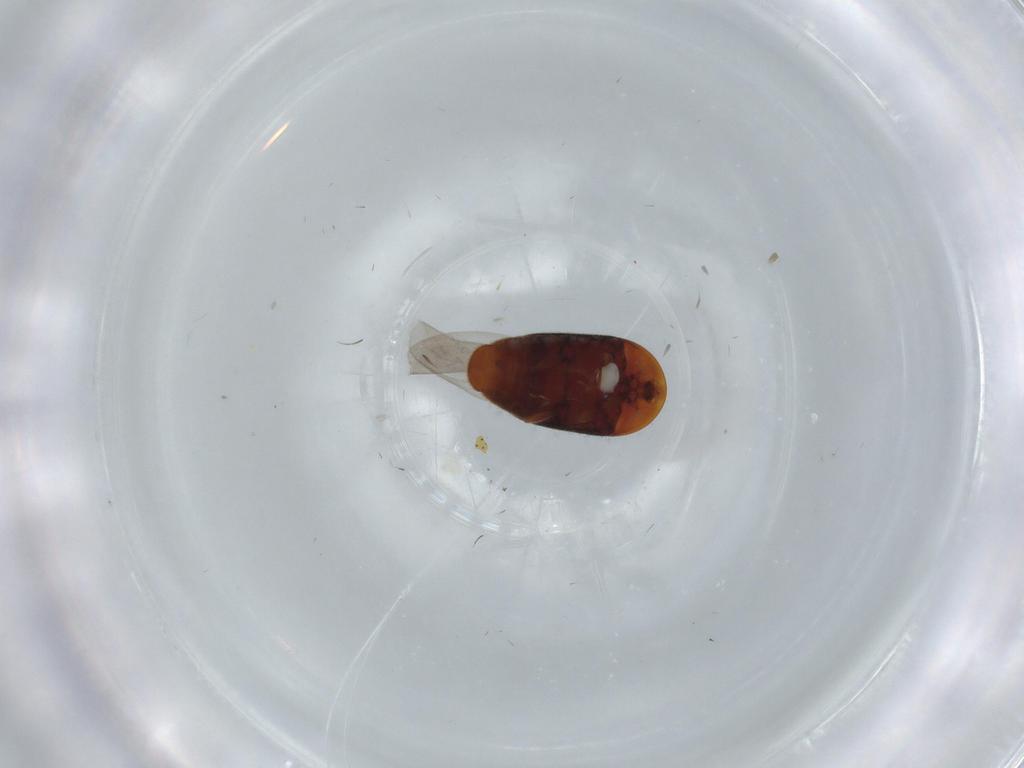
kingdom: Animalia
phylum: Arthropoda
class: Insecta
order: Coleoptera
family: Corylophidae
